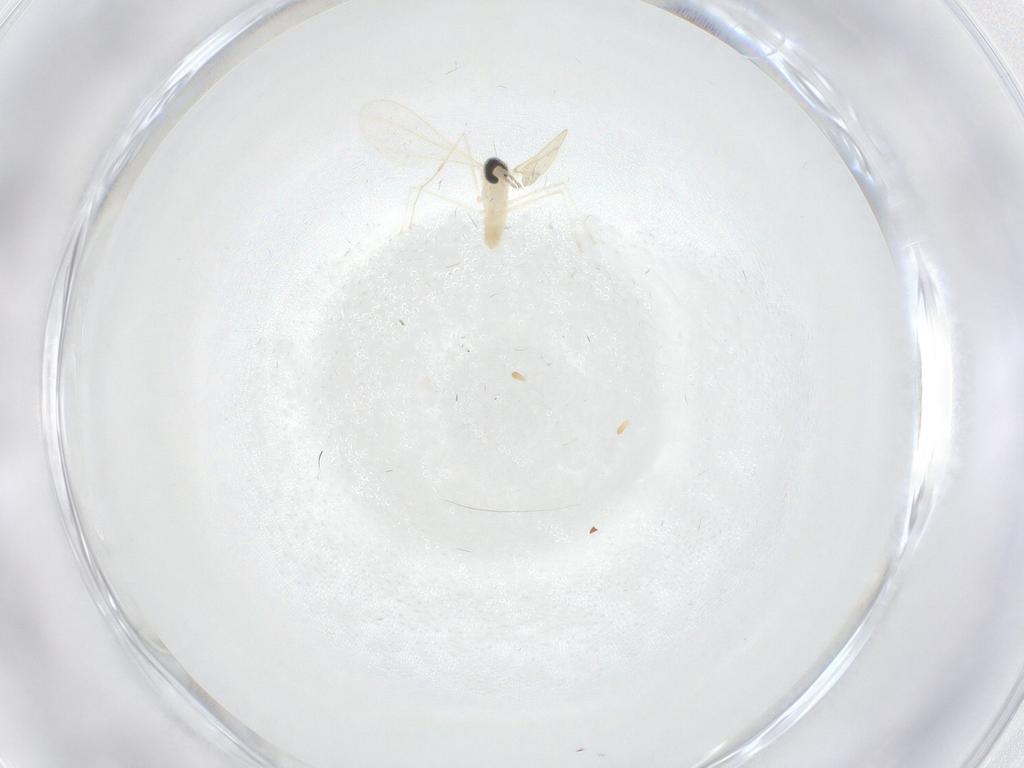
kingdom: Animalia
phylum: Arthropoda
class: Insecta
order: Diptera
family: Cecidomyiidae
